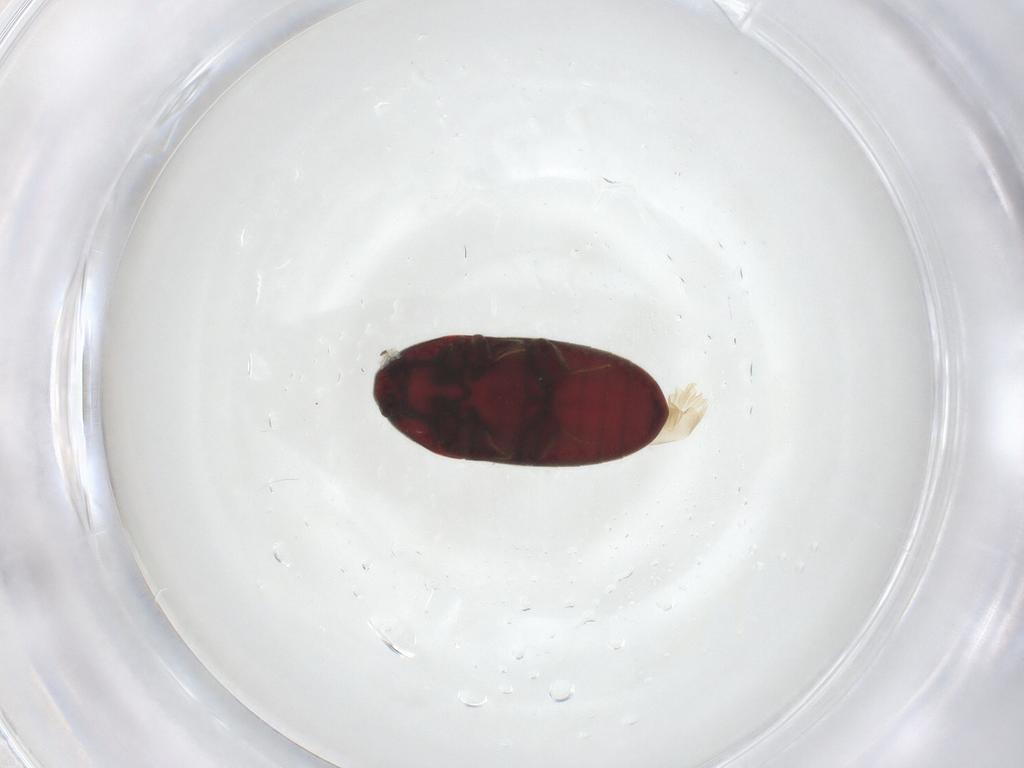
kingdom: Animalia
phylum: Arthropoda
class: Insecta
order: Coleoptera
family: Throscidae
